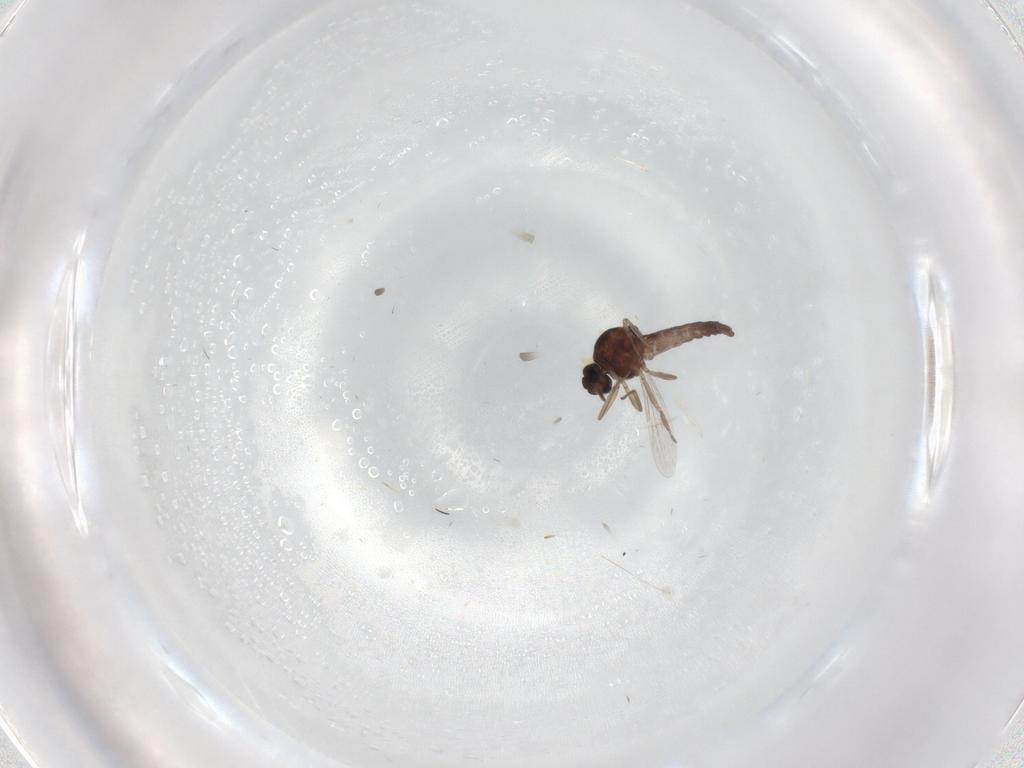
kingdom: Animalia
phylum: Arthropoda
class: Insecta
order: Diptera
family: Ceratopogonidae
